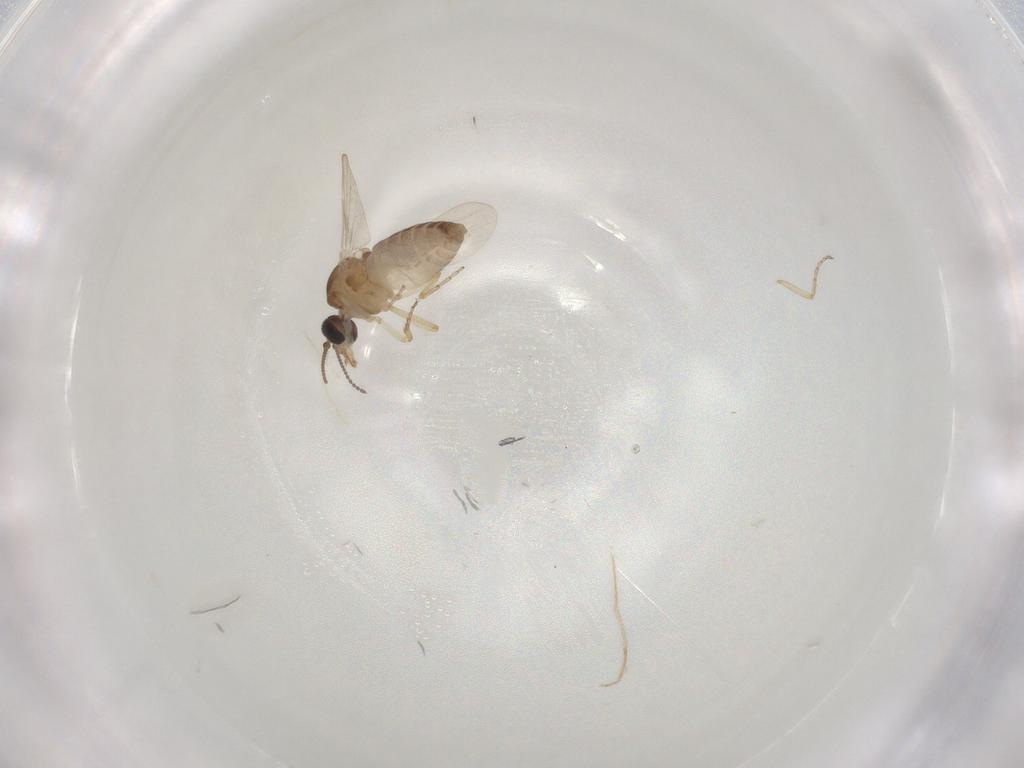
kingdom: Animalia
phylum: Arthropoda
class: Insecta
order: Diptera
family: Ceratopogonidae
